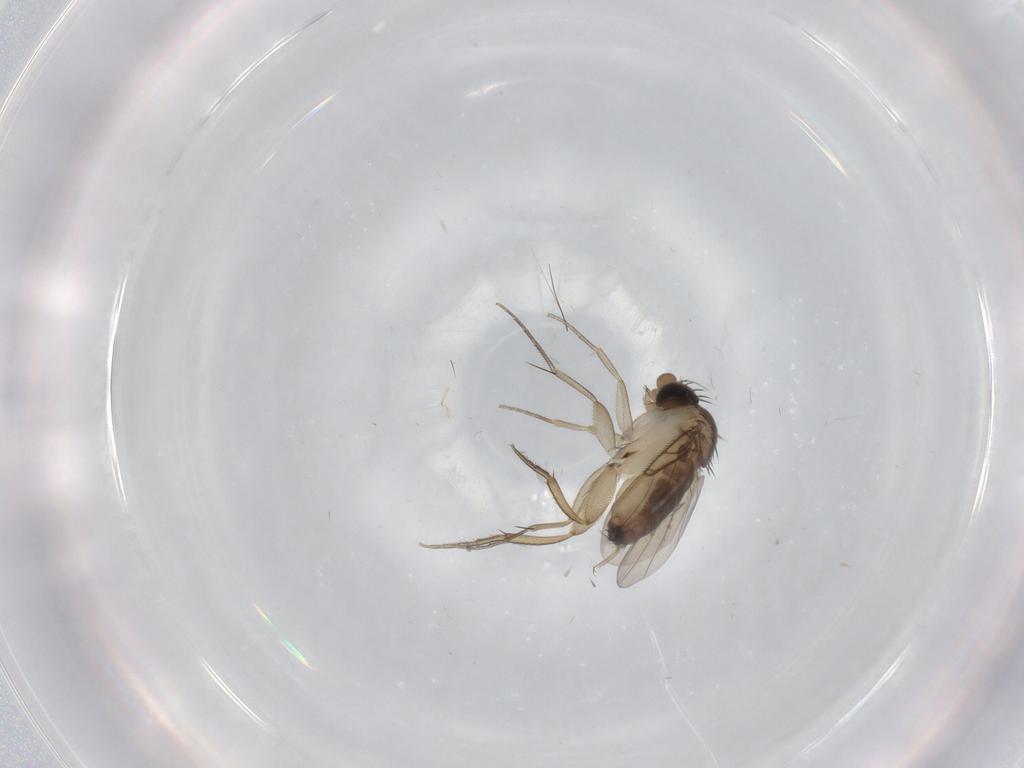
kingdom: Animalia
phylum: Arthropoda
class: Insecta
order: Diptera
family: Phoridae
